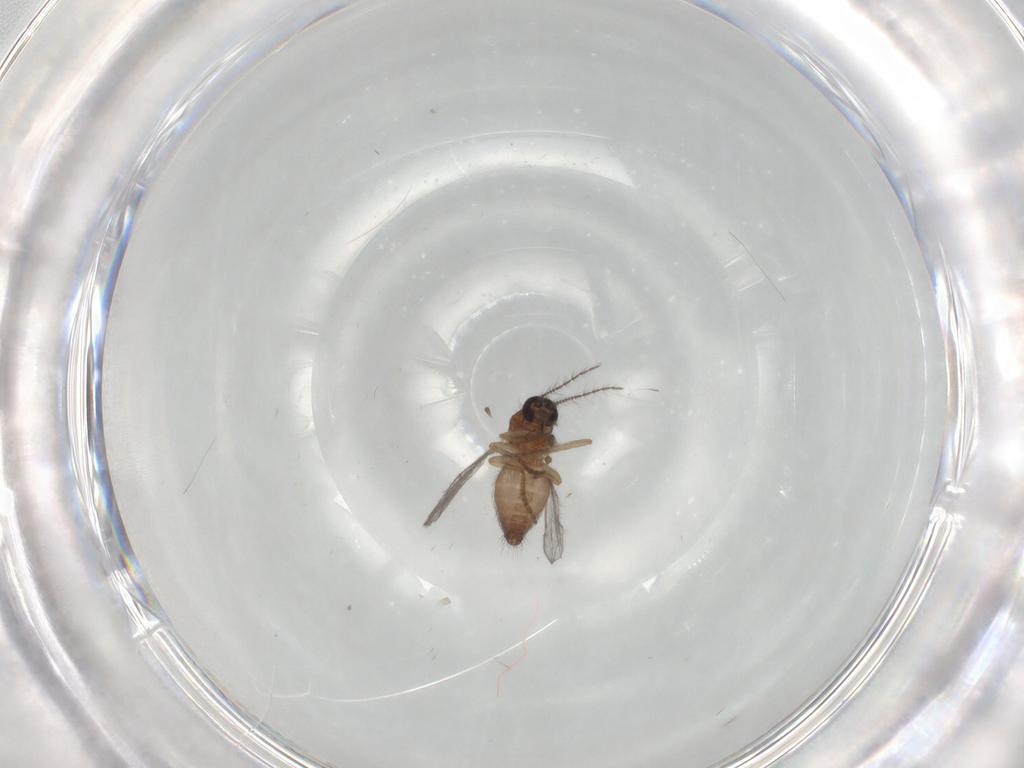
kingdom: Animalia
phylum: Arthropoda
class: Insecta
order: Diptera
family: Ceratopogonidae
